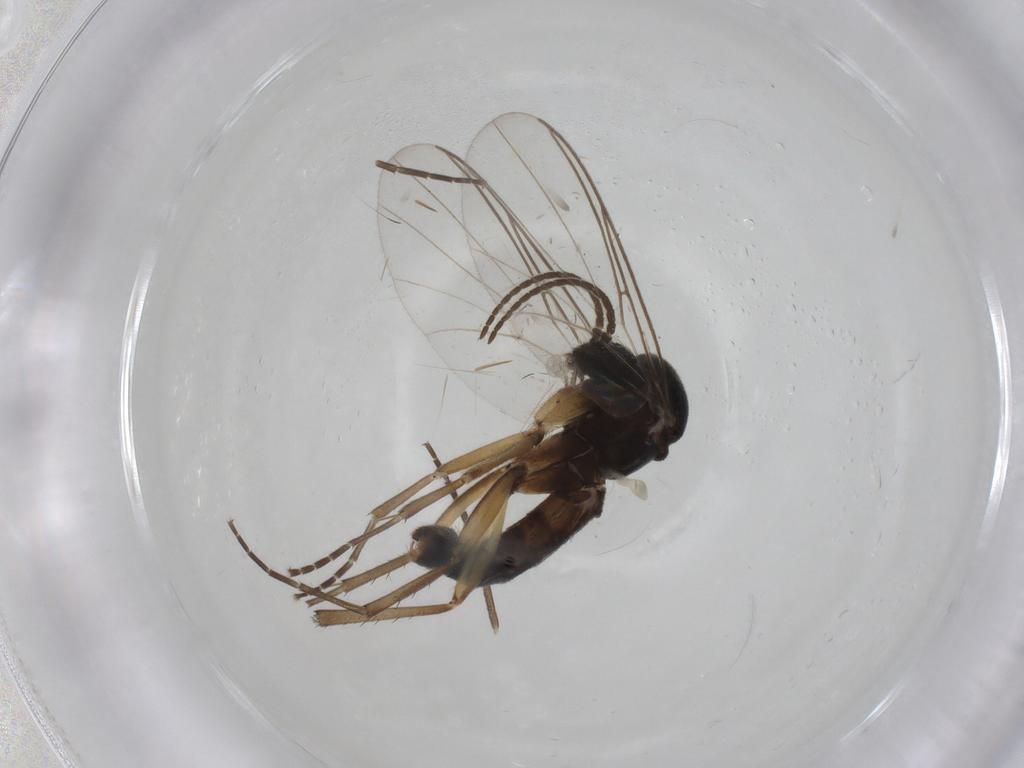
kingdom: Animalia
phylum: Arthropoda
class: Insecta
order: Diptera
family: Mycetophilidae
